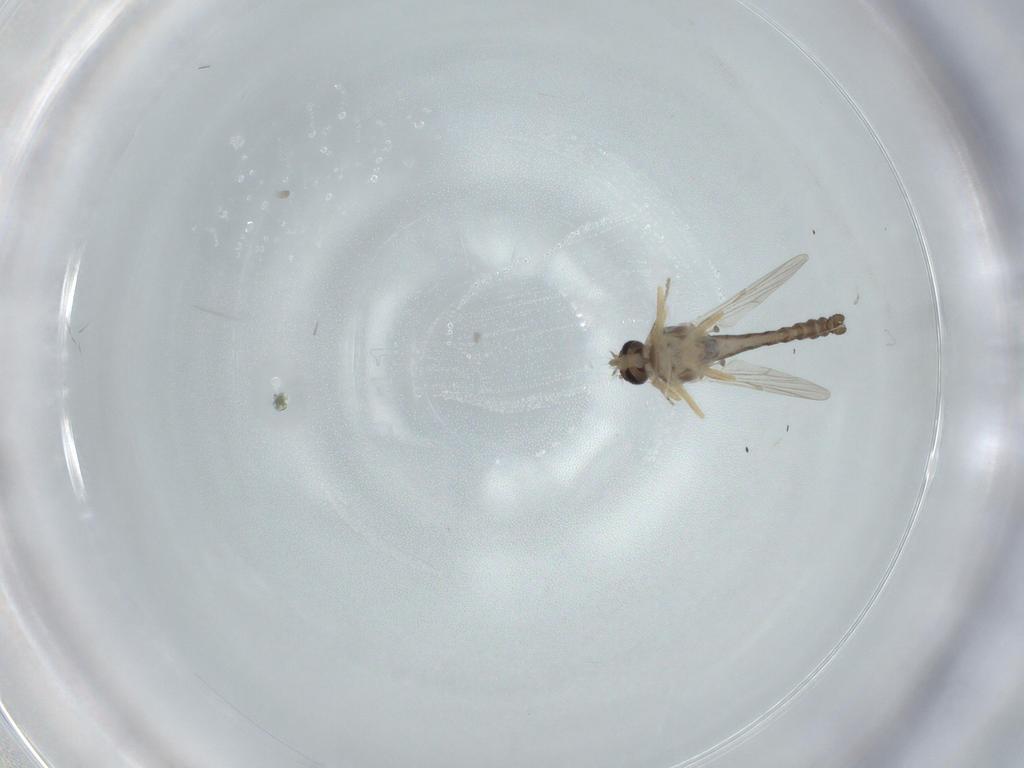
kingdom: Animalia
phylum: Arthropoda
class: Insecta
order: Diptera
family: Ceratopogonidae
